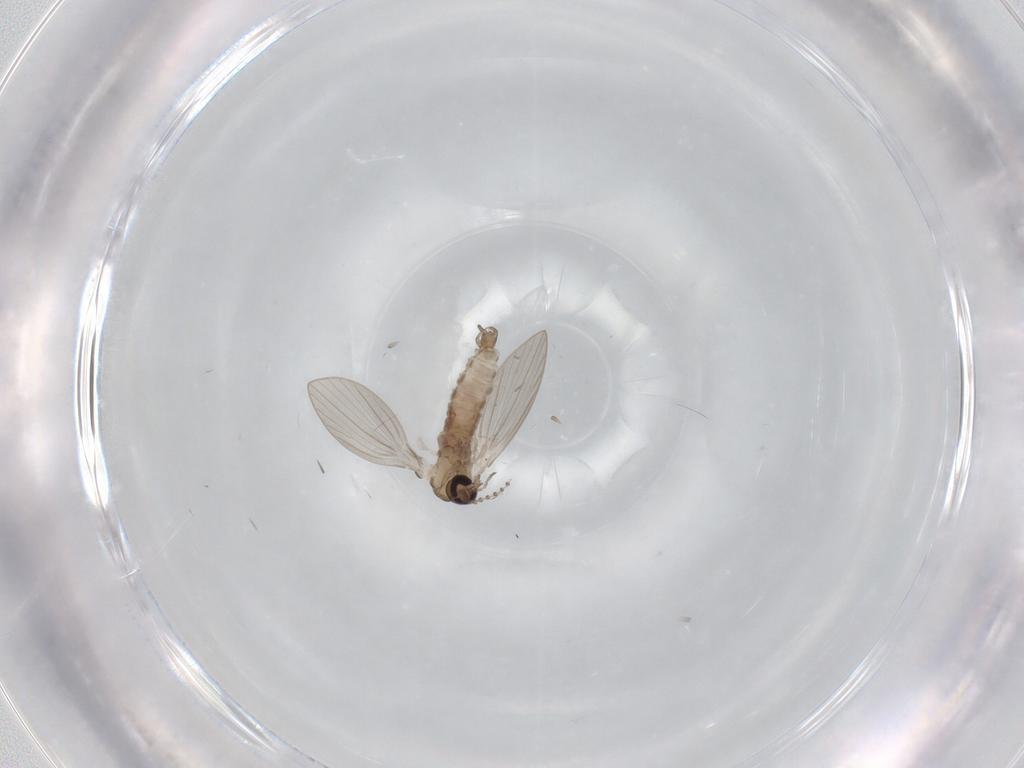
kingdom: Animalia
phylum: Arthropoda
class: Insecta
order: Diptera
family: Psychodidae
